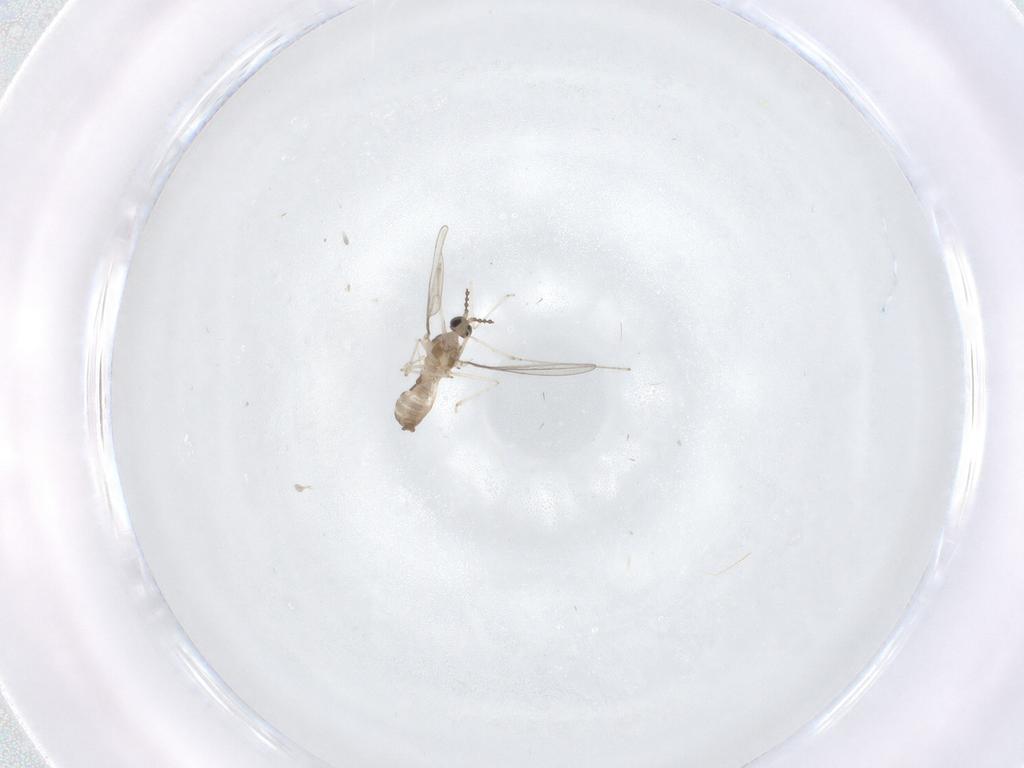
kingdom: Animalia
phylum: Arthropoda
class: Insecta
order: Diptera
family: Cecidomyiidae
